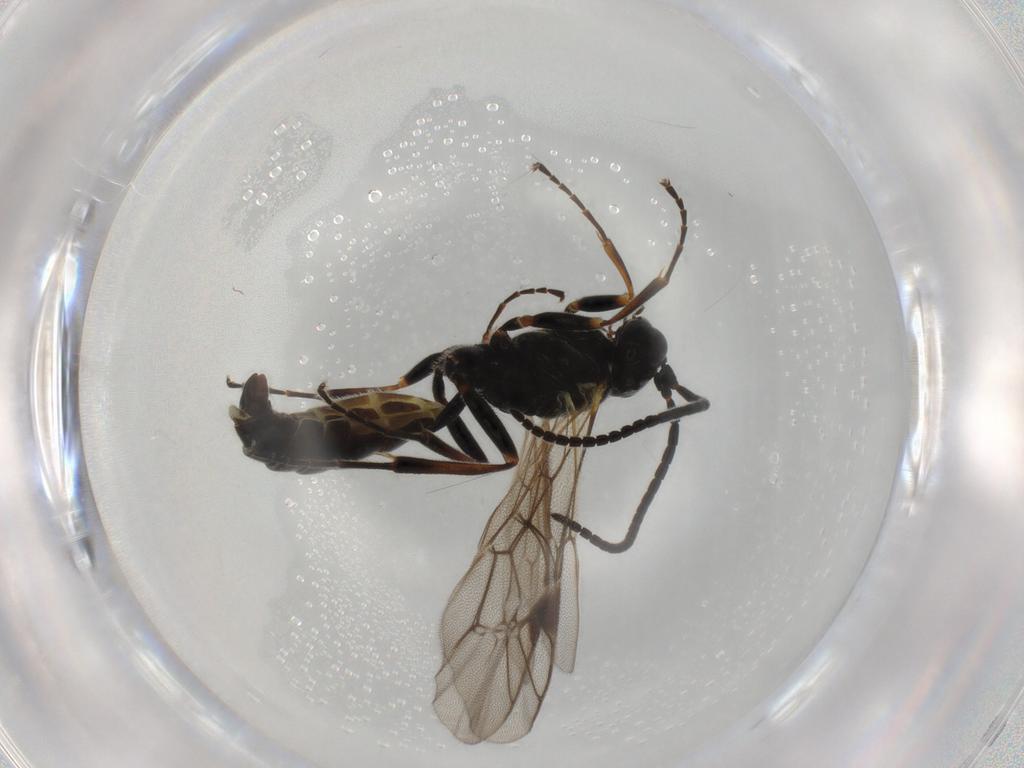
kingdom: Animalia
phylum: Arthropoda
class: Insecta
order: Hymenoptera
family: Ichneumonidae
